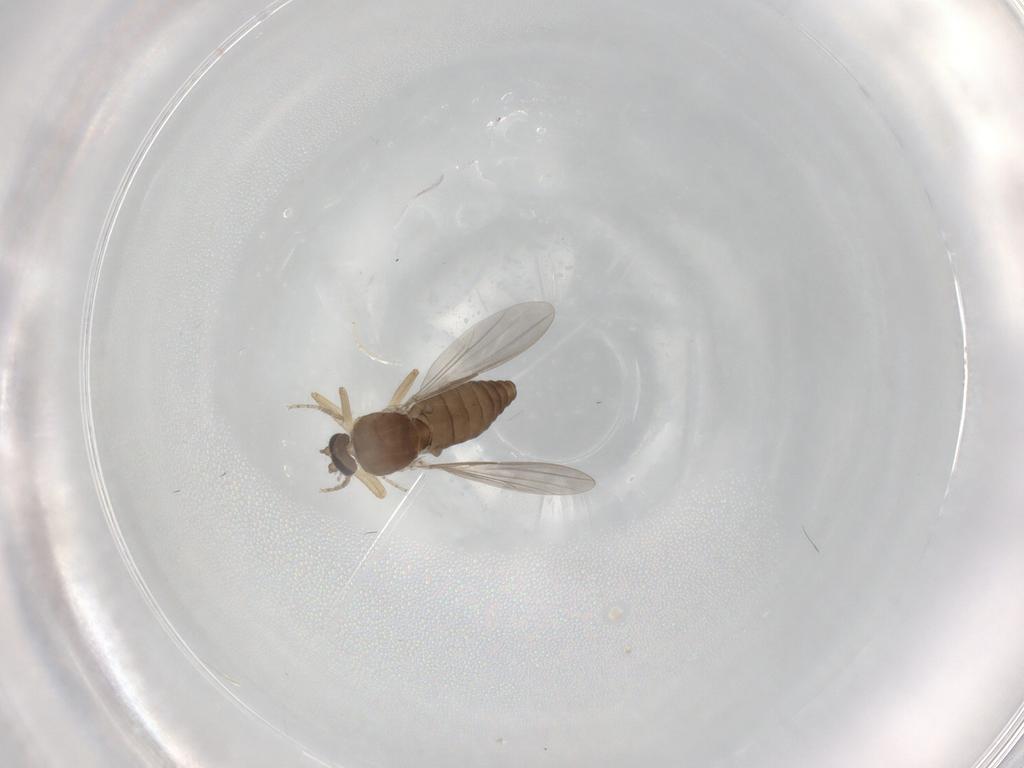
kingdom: Animalia
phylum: Arthropoda
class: Insecta
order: Diptera
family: Ceratopogonidae
